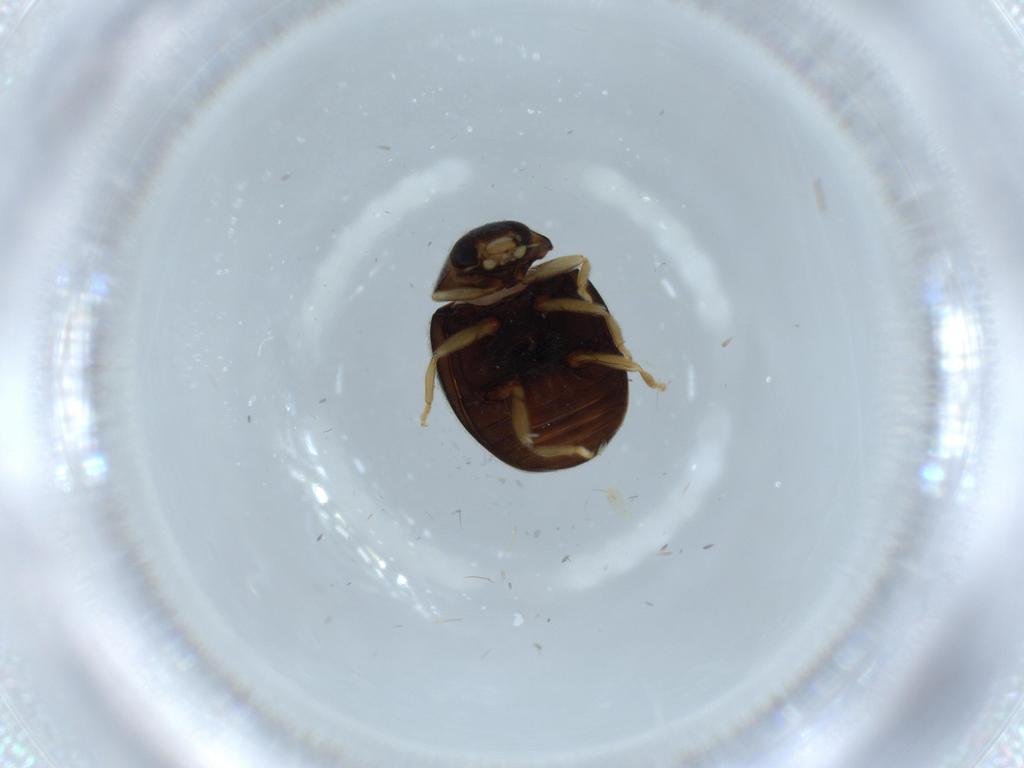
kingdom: Animalia
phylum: Arthropoda
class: Insecta
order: Coleoptera
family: Coccinellidae
